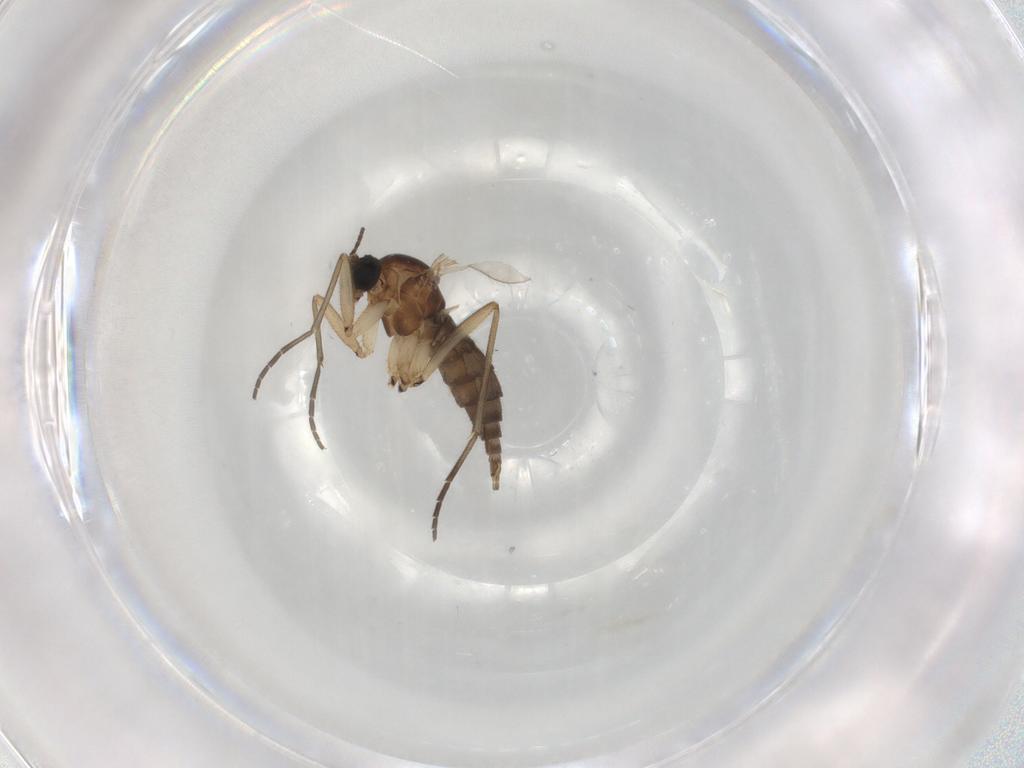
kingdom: Animalia
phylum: Arthropoda
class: Insecta
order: Diptera
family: Sciaridae
